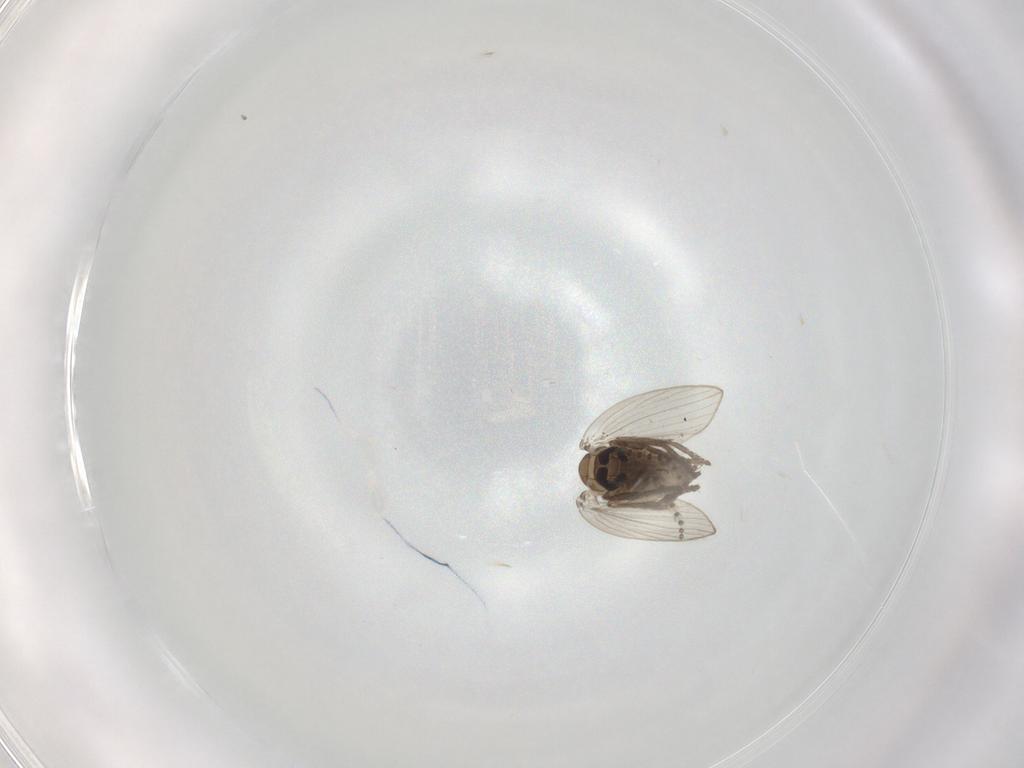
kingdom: Animalia
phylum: Arthropoda
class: Insecta
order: Diptera
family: Psychodidae
